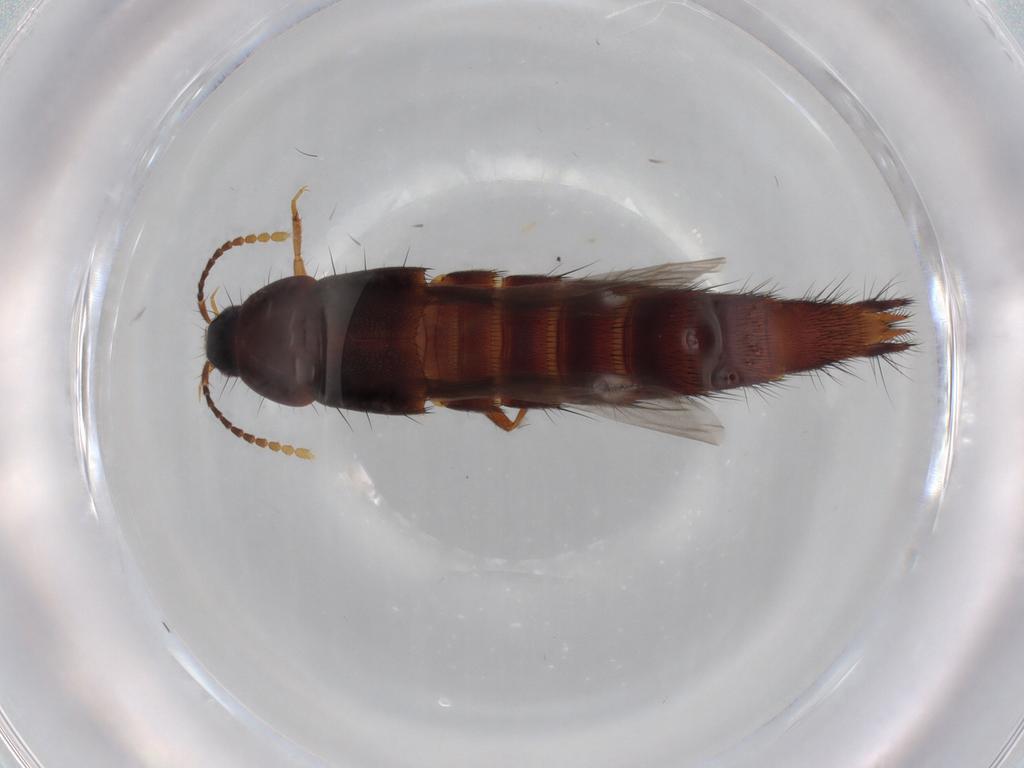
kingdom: Animalia
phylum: Arthropoda
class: Insecta
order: Coleoptera
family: Staphylinidae
